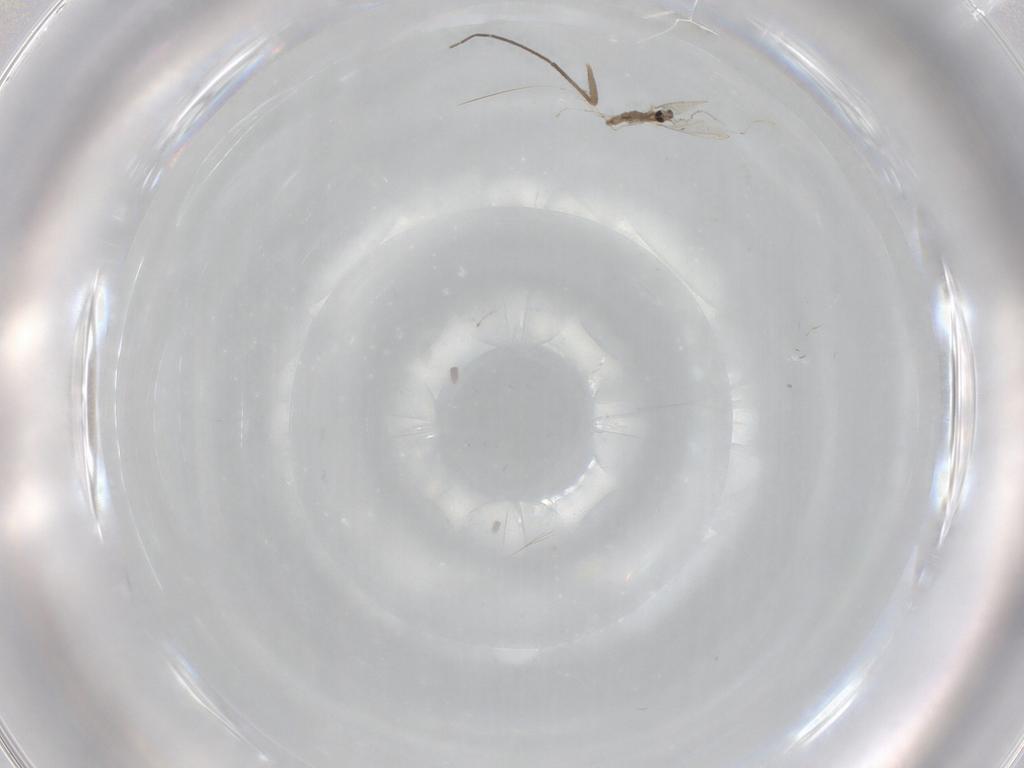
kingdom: Animalia
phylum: Arthropoda
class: Insecta
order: Diptera
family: Cecidomyiidae
